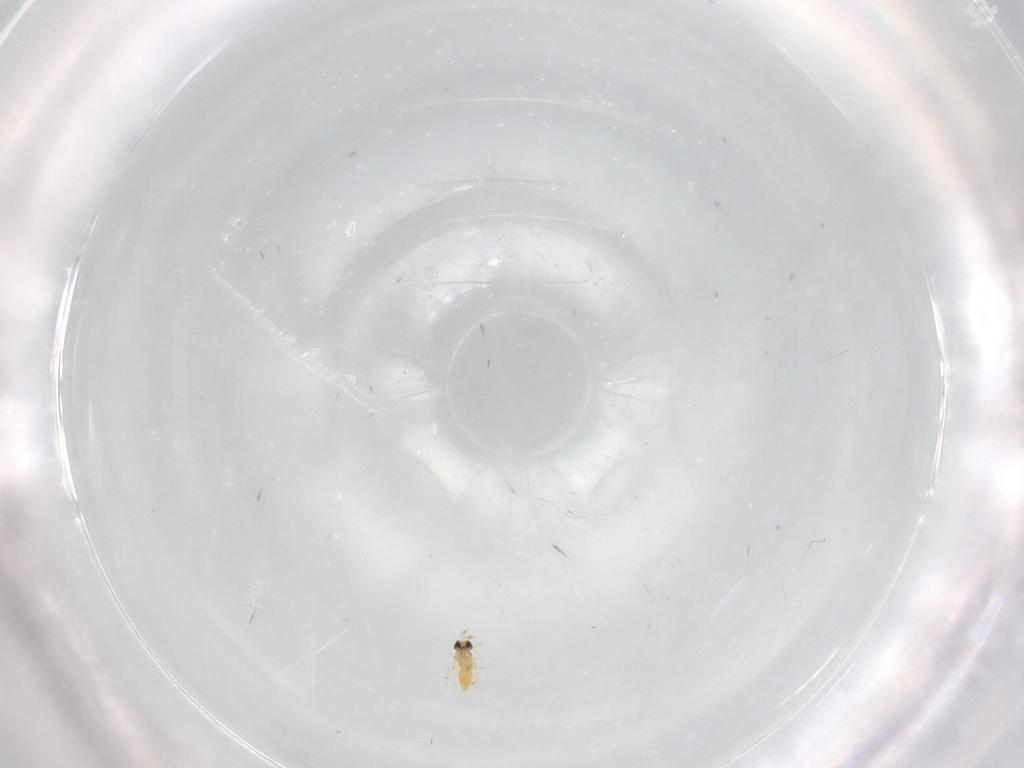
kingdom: Animalia
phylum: Arthropoda
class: Insecta
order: Hymenoptera
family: Trichogrammatidae
